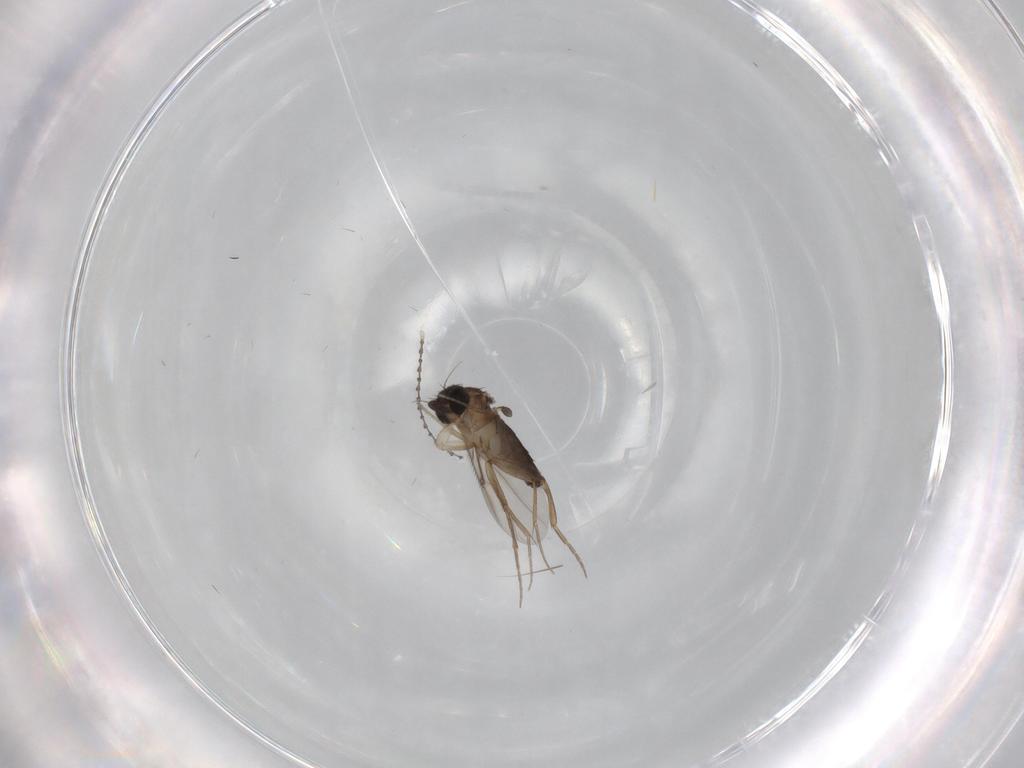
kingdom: Animalia
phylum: Arthropoda
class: Insecta
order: Diptera
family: Phoridae
